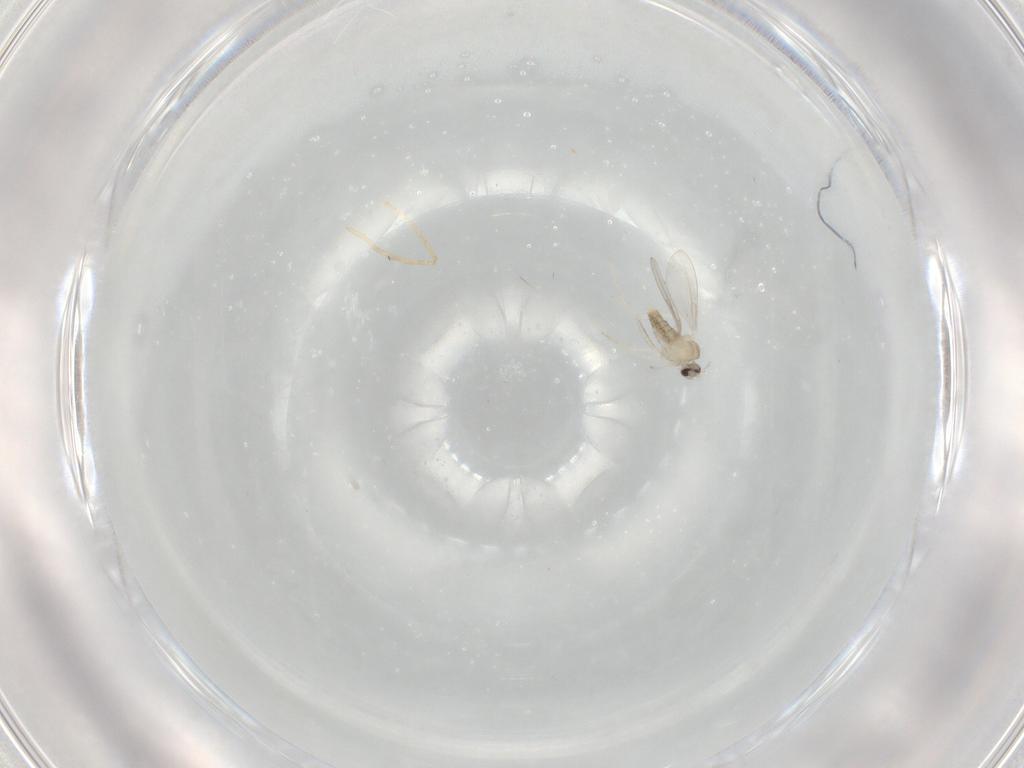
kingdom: Animalia
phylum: Arthropoda
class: Insecta
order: Diptera
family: Cecidomyiidae
